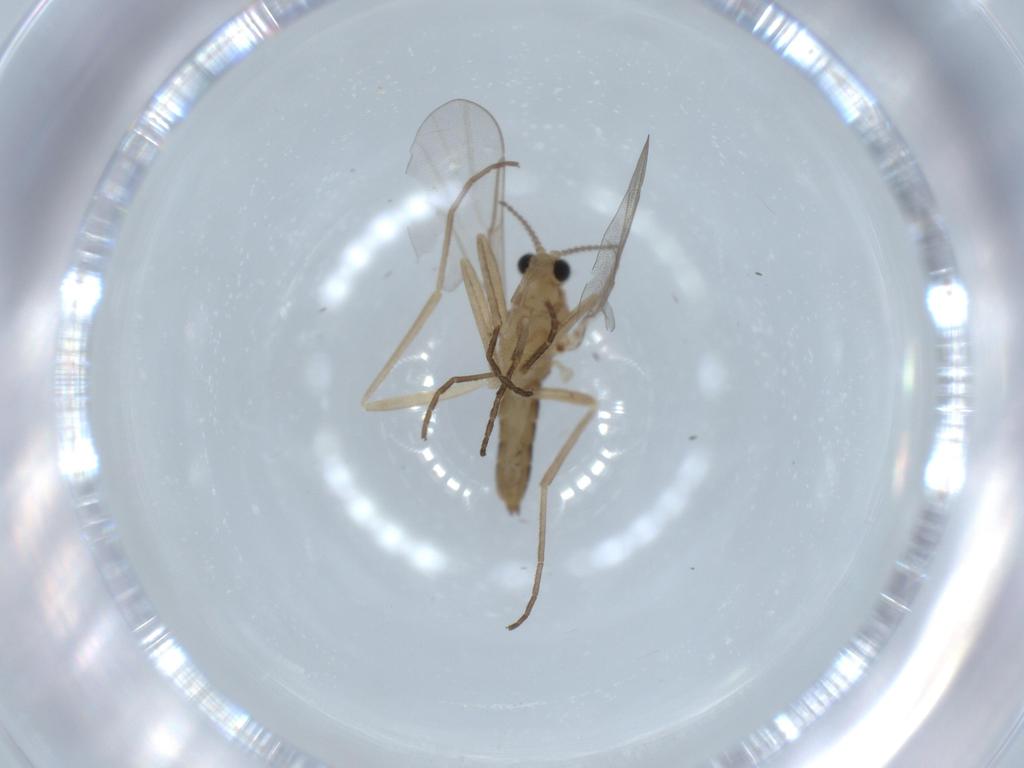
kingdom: Animalia
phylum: Arthropoda
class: Insecta
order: Diptera
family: Cecidomyiidae
